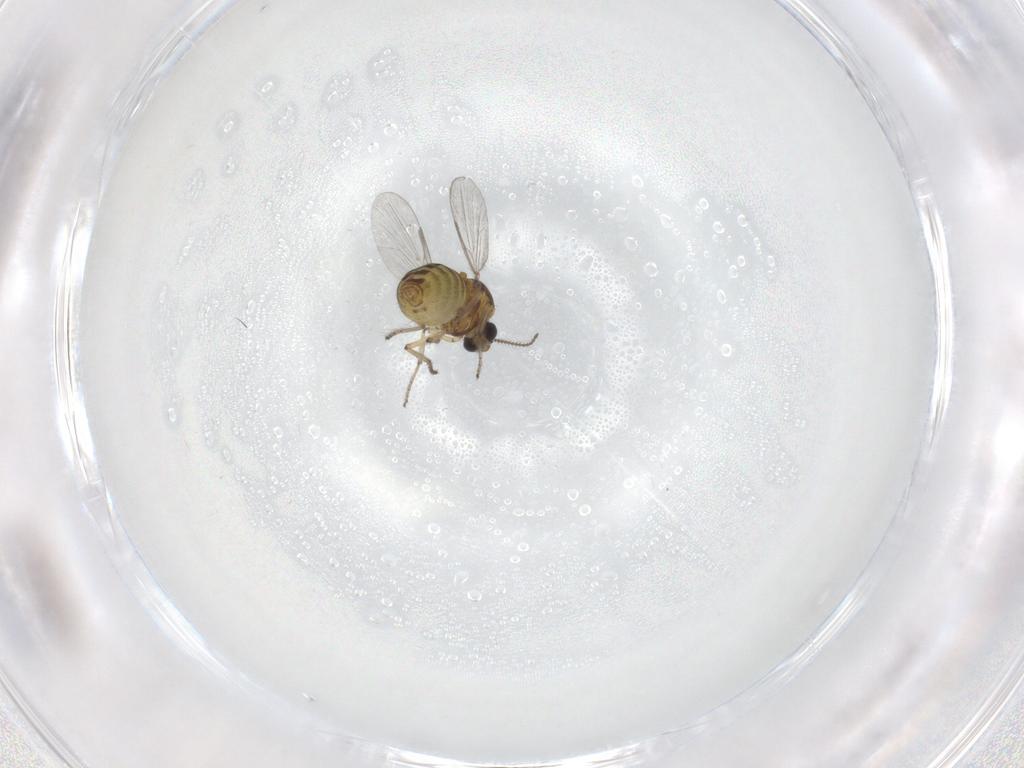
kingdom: Animalia
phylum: Arthropoda
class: Insecta
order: Diptera
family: Ceratopogonidae
